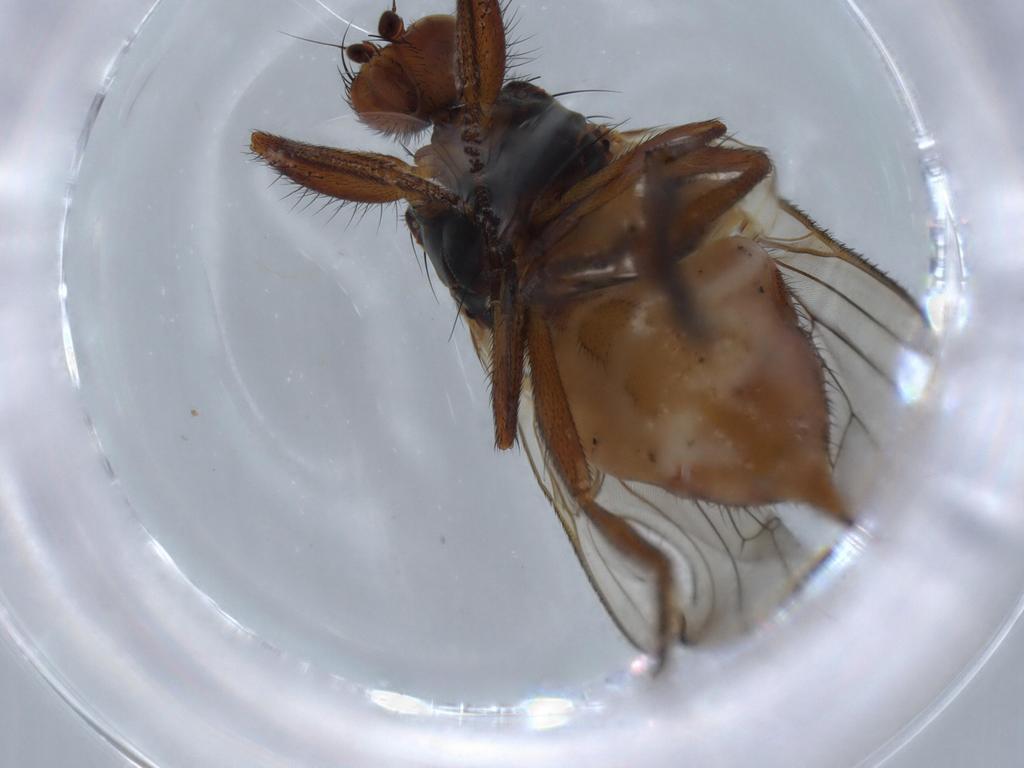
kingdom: Animalia
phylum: Arthropoda
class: Insecta
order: Diptera
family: Heleomyzidae
